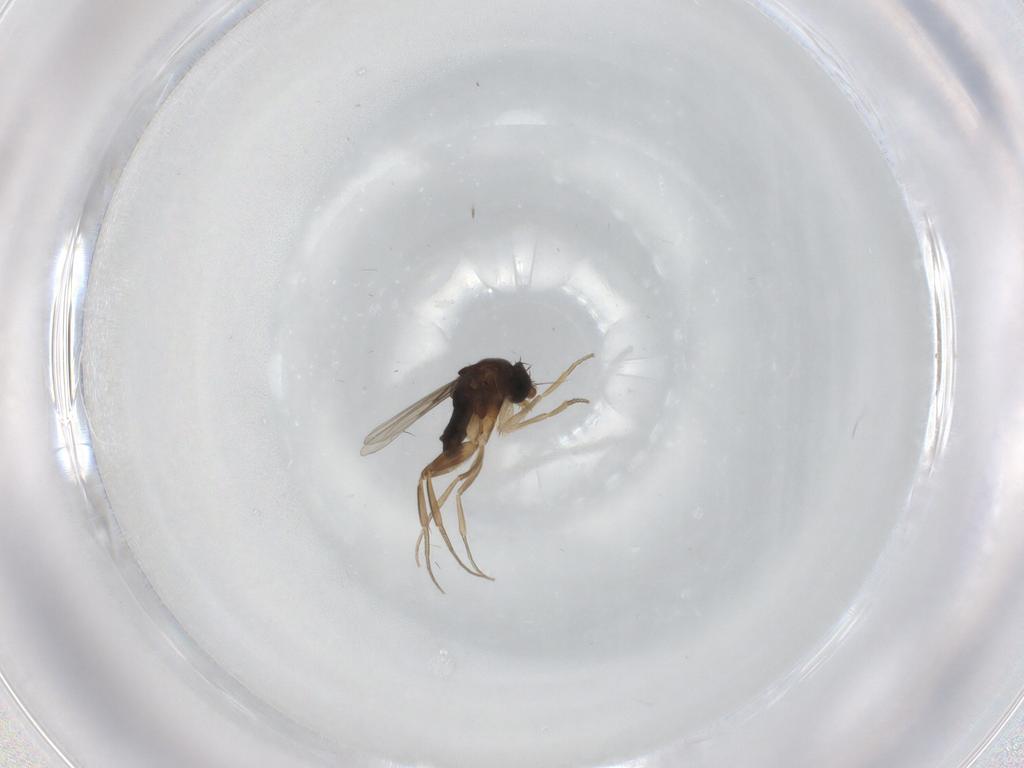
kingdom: Animalia
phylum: Arthropoda
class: Insecta
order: Diptera
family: Phoridae
